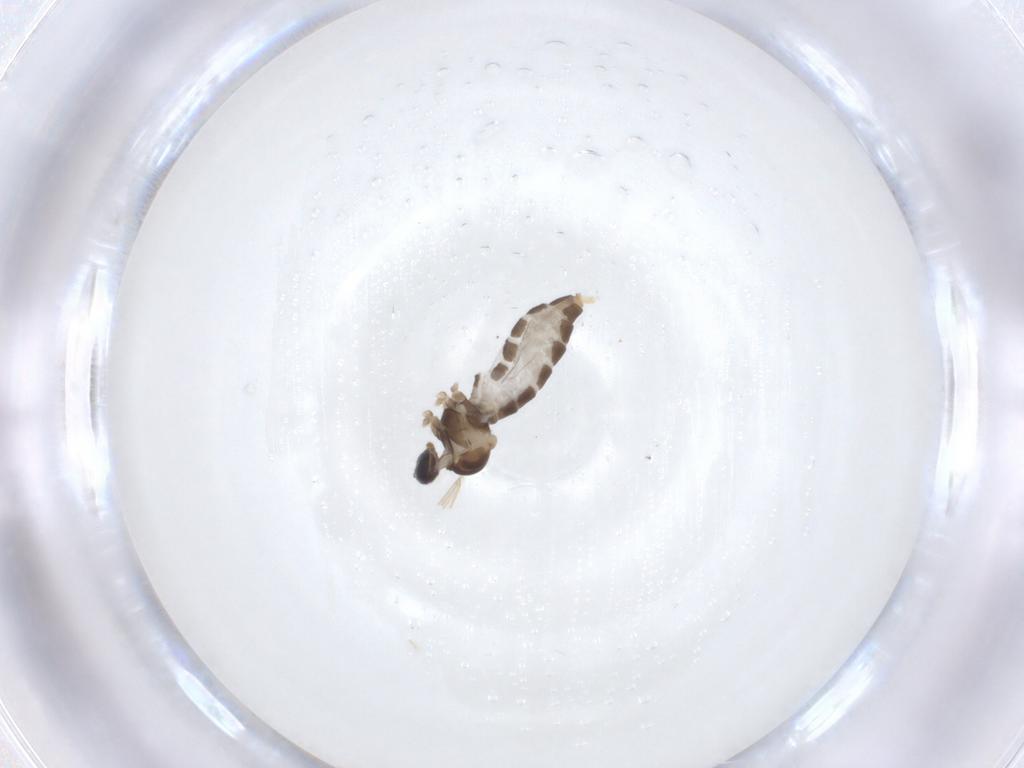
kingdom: Animalia
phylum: Arthropoda
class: Insecta
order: Diptera
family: Cecidomyiidae
